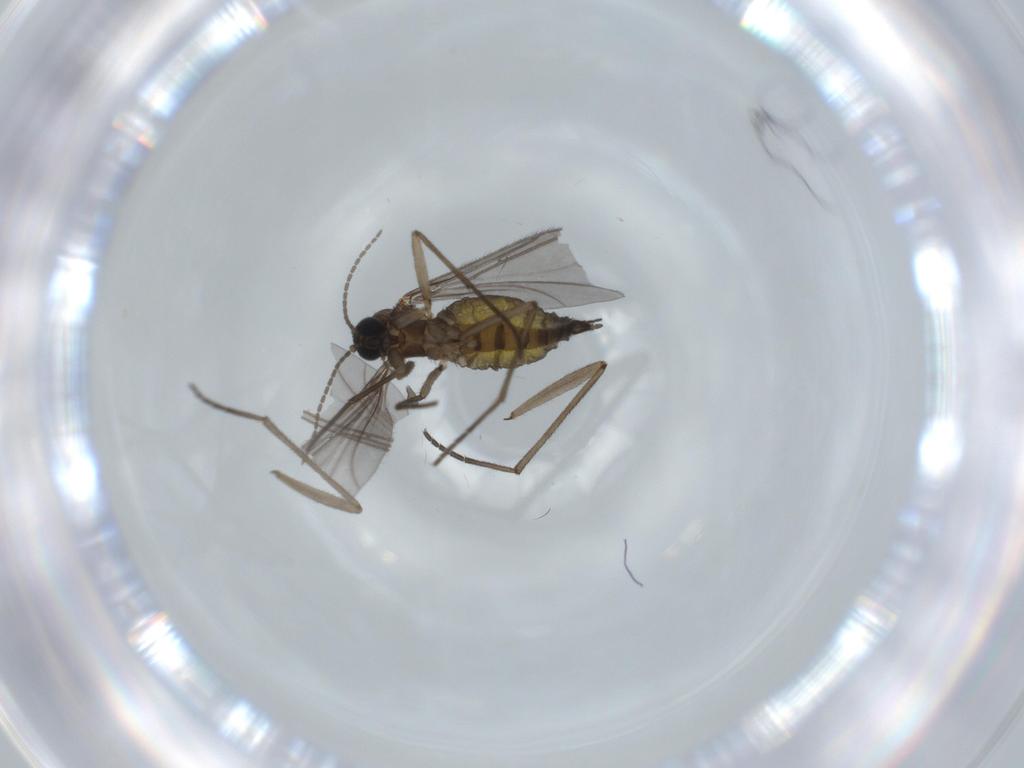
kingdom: Animalia
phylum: Arthropoda
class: Insecta
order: Diptera
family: Sciaridae
